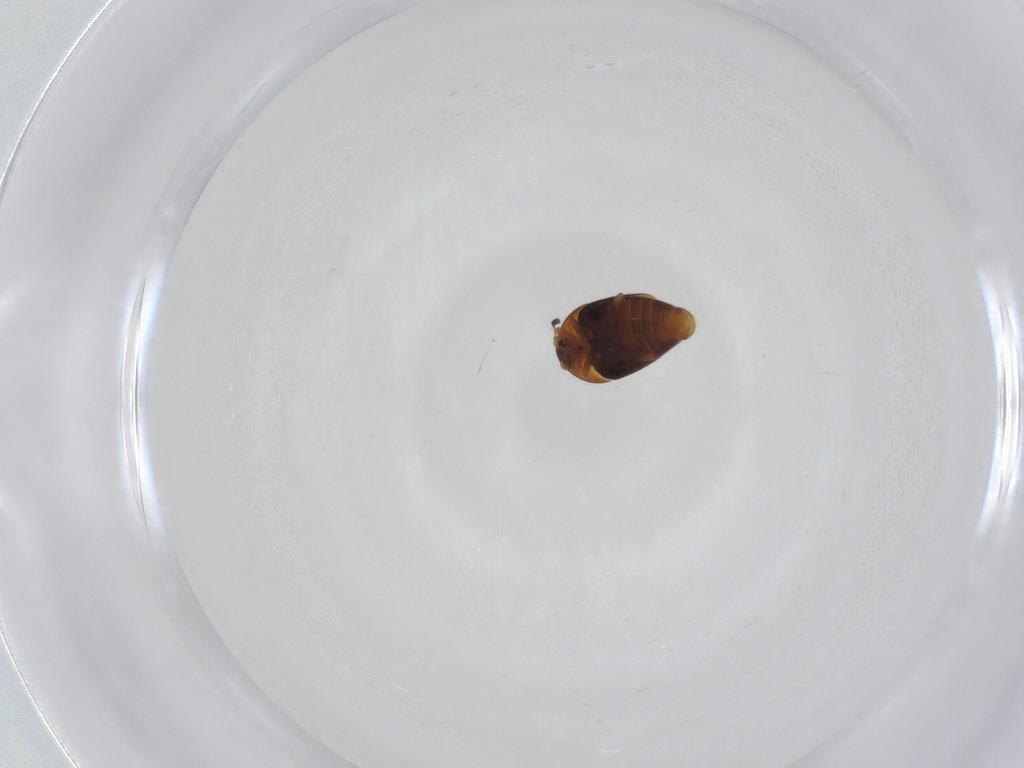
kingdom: Animalia
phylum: Arthropoda
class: Insecta
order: Coleoptera
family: Corylophidae
